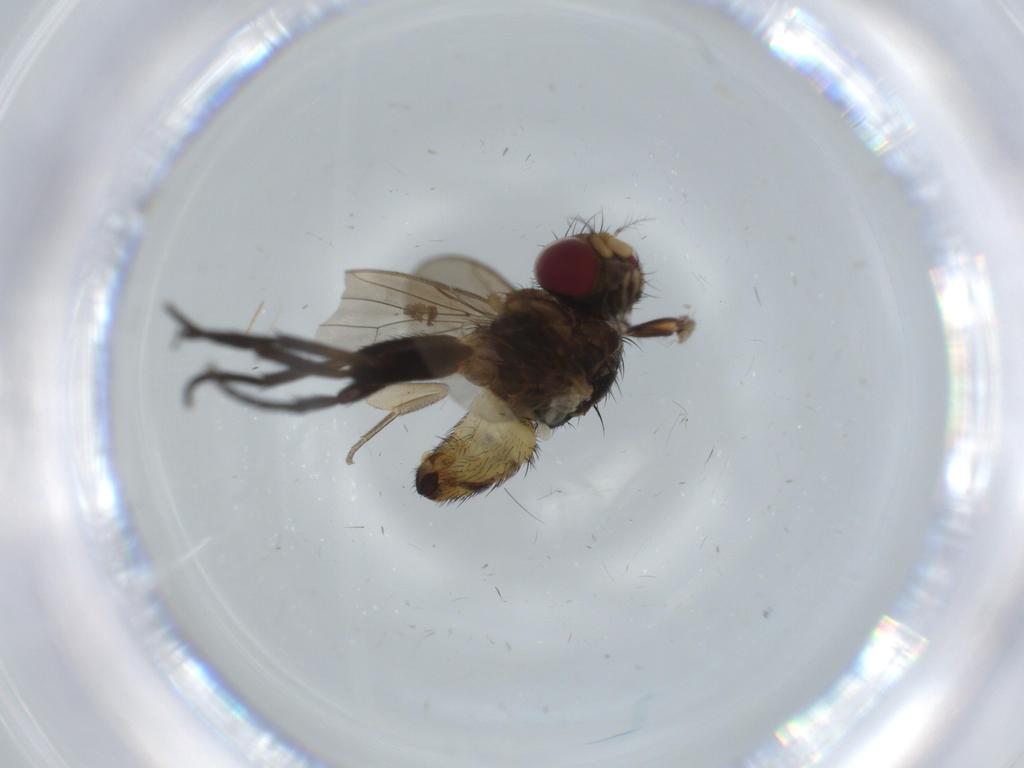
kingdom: Animalia
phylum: Arthropoda
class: Insecta
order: Diptera
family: Anthomyiidae
